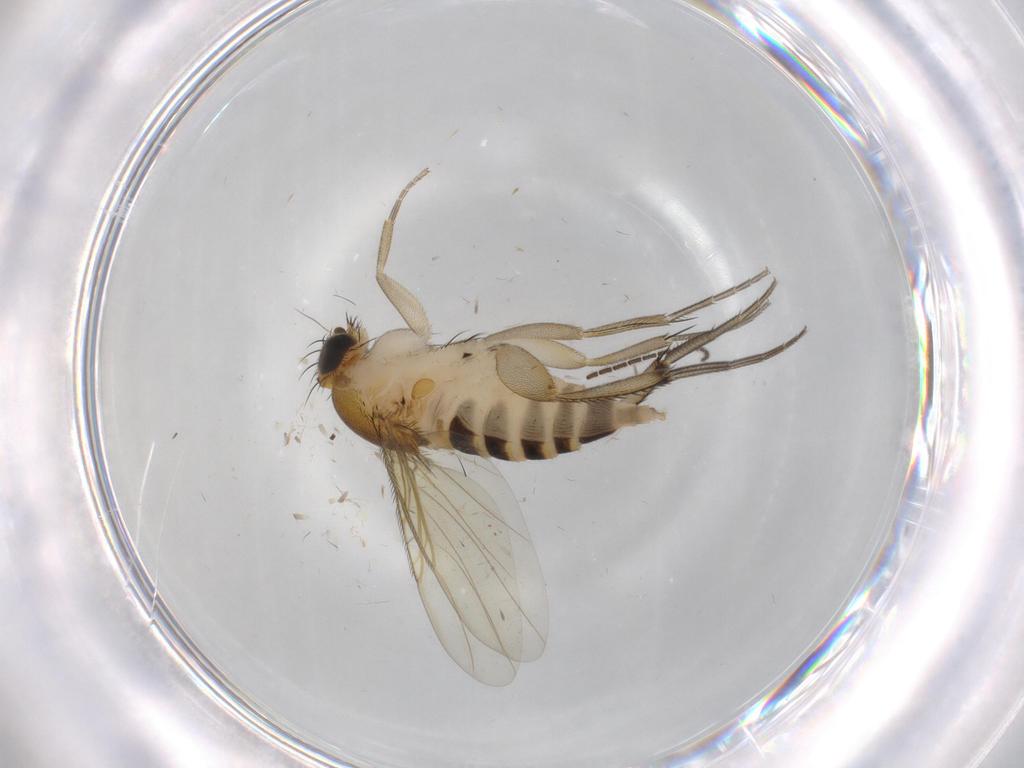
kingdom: Animalia
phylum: Arthropoda
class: Insecta
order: Diptera
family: Phoridae
